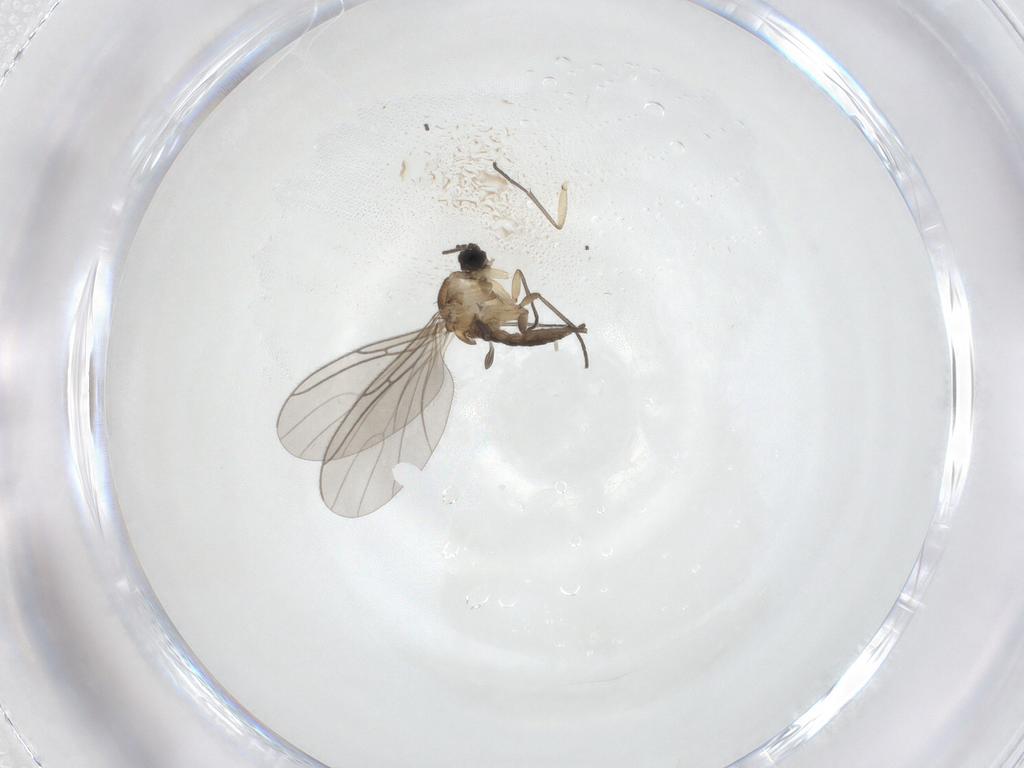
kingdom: Animalia
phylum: Arthropoda
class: Insecta
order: Diptera
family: Sciaridae
